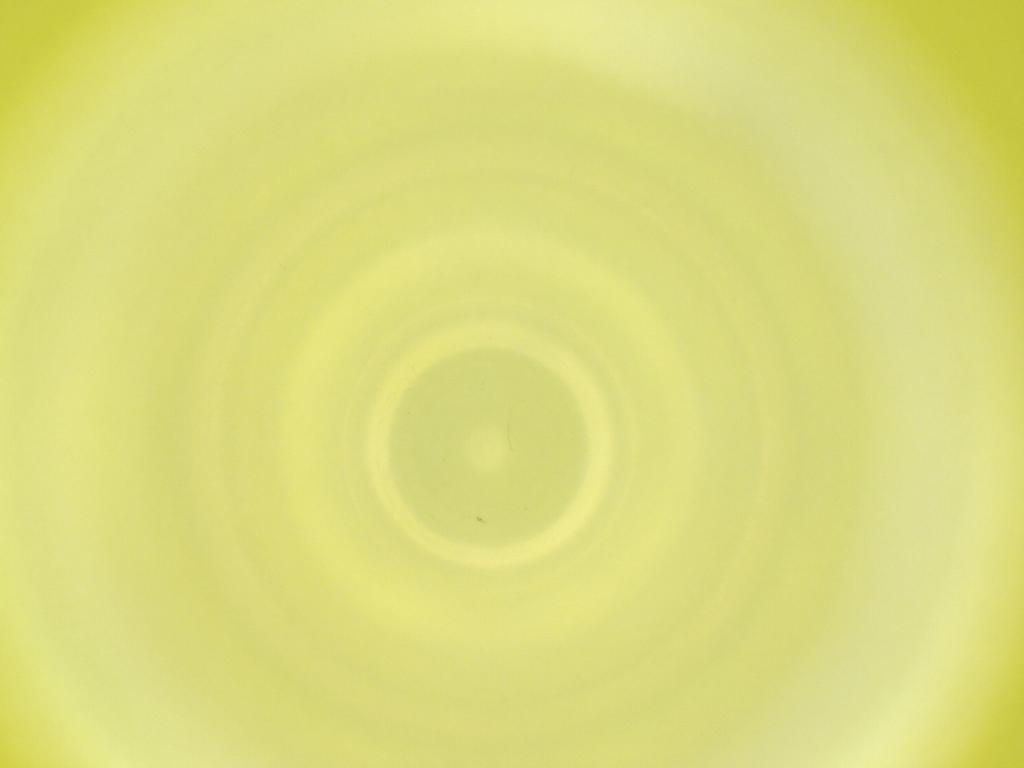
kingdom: Animalia
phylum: Arthropoda
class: Insecta
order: Diptera
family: Cecidomyiidae
